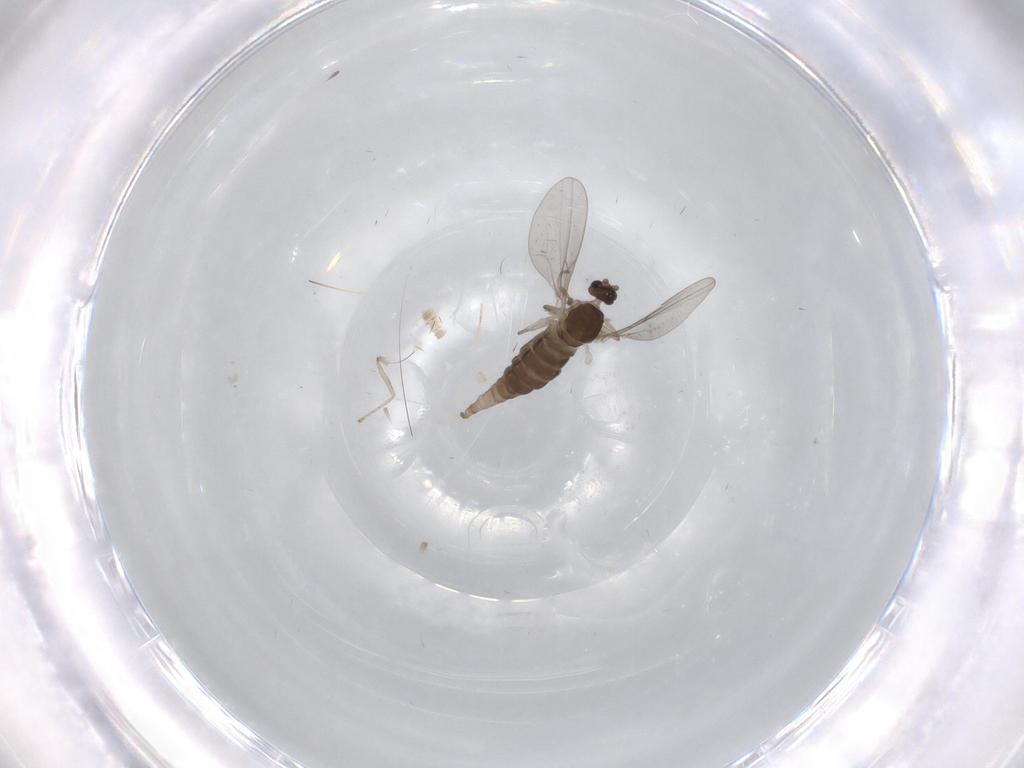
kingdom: Animalia
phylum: Arthropoda
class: Insecta
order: Diptera
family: Cecidomyiidae
